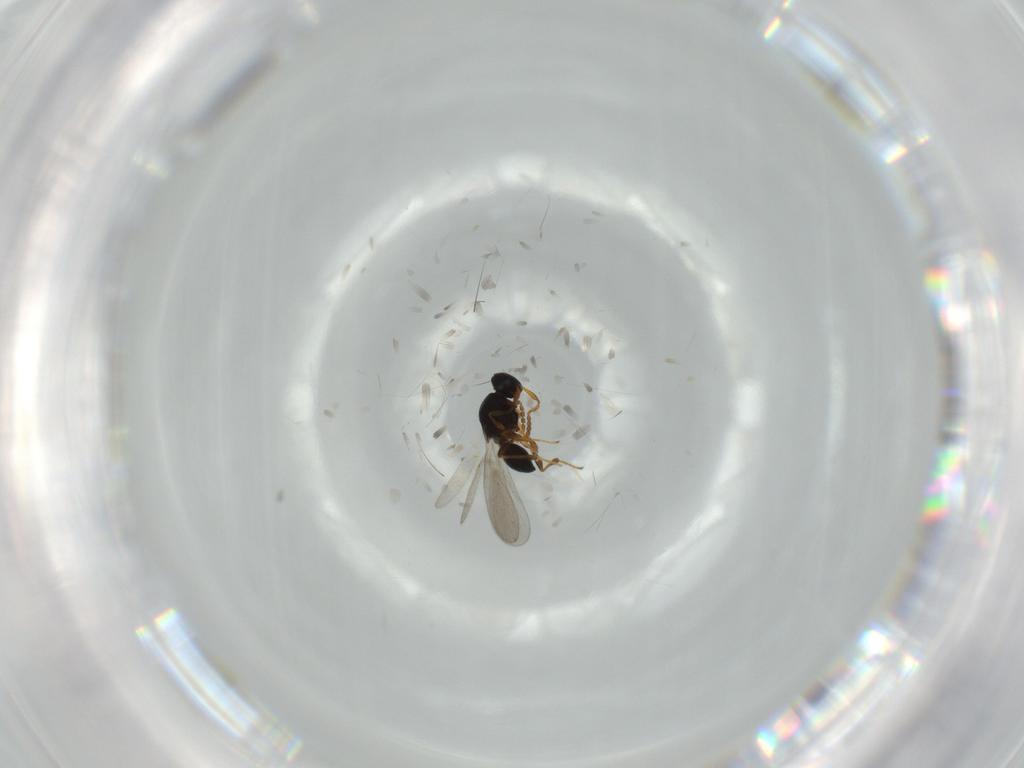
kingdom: Animalia
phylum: Arthropoda
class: Insecta
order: Hymenoptera
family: Platygastridae
